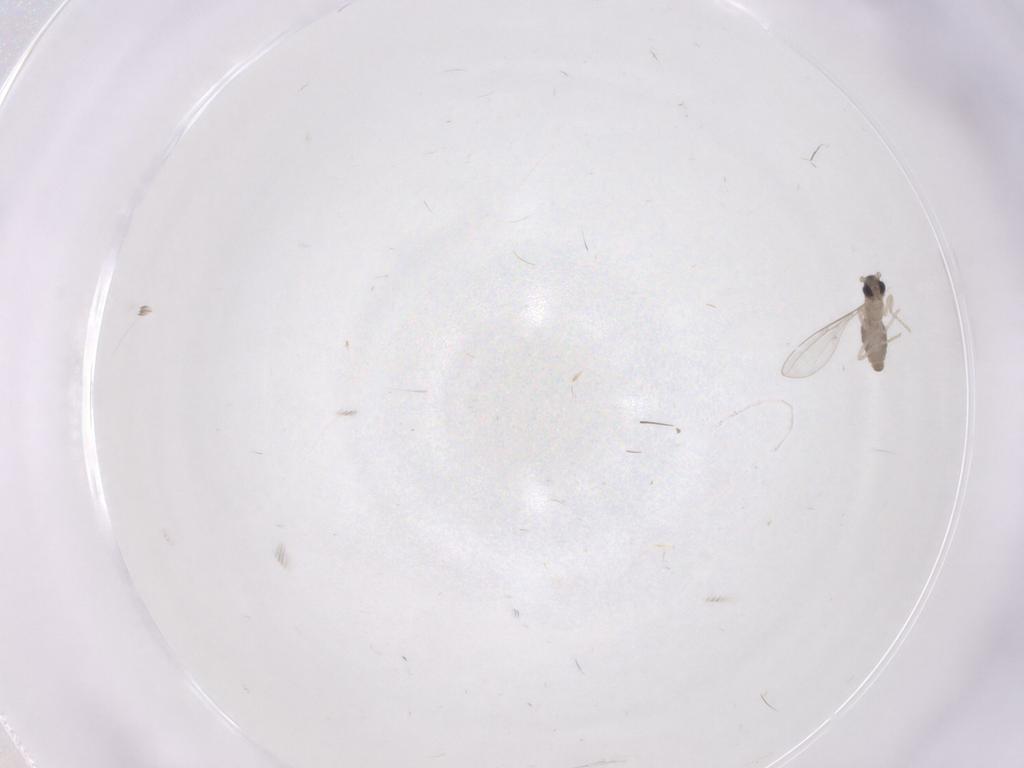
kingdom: Animalia
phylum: Arthropoda
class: Insecta
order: Diptera
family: Cecidomyiidae
